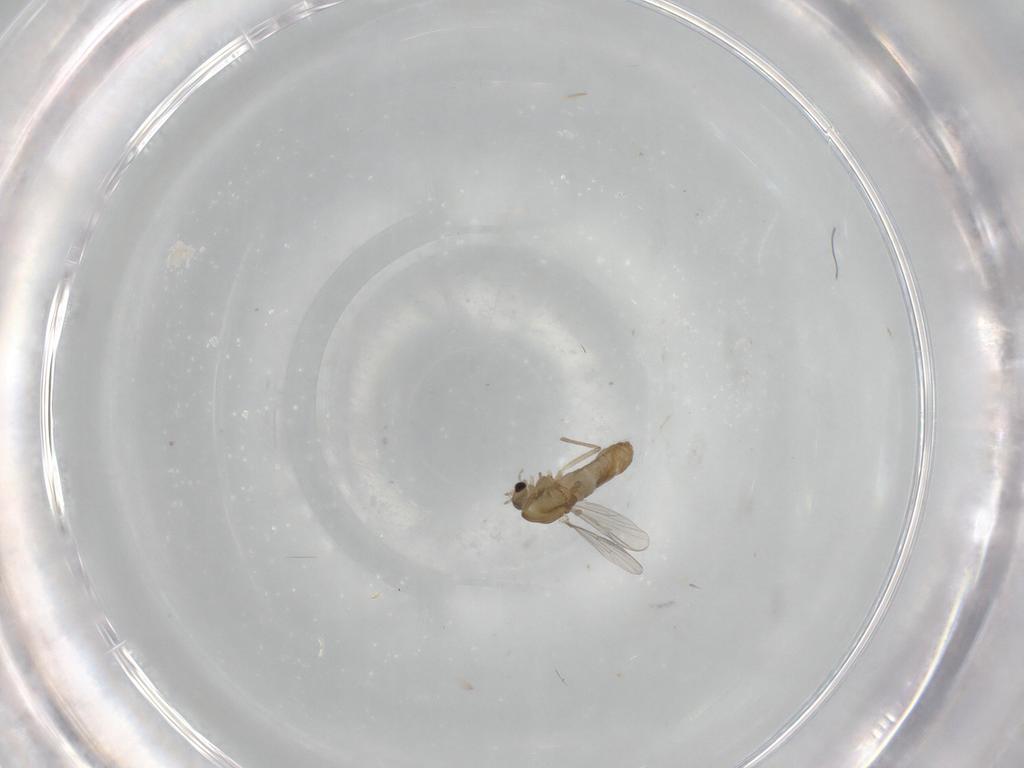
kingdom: Animalia
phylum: Arthropoda
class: Insecta
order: Diptera
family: Chironomidae
